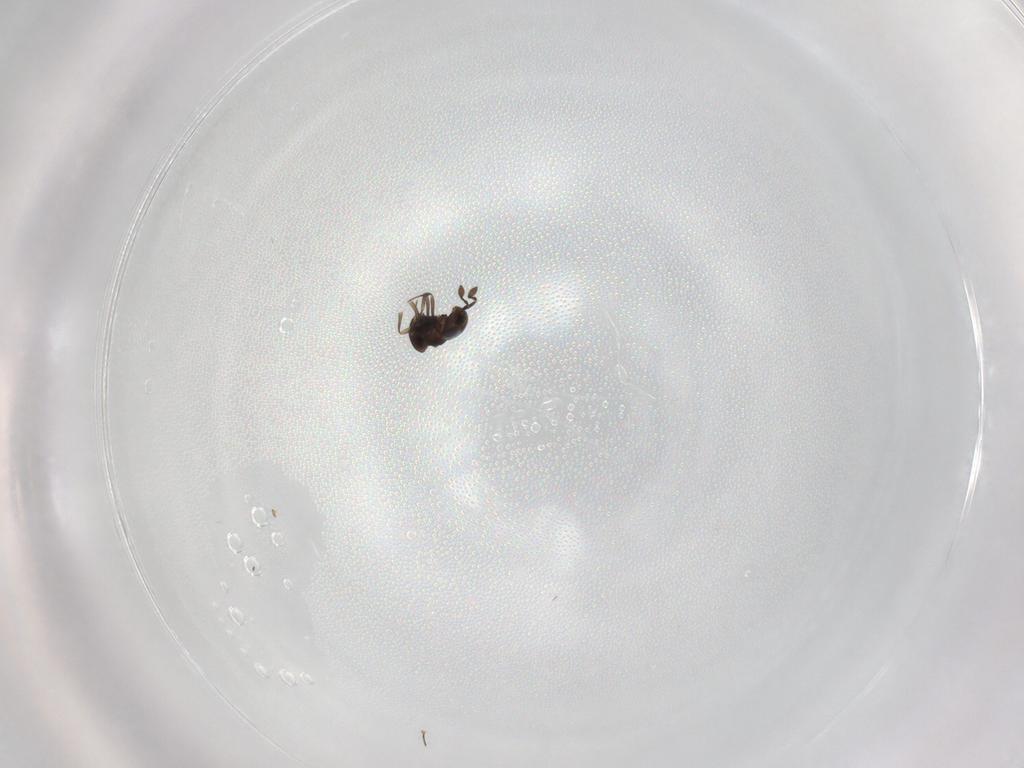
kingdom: Animalia
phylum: Arthropoda
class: Insecta
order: Hymenoptera
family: Scelionidae
